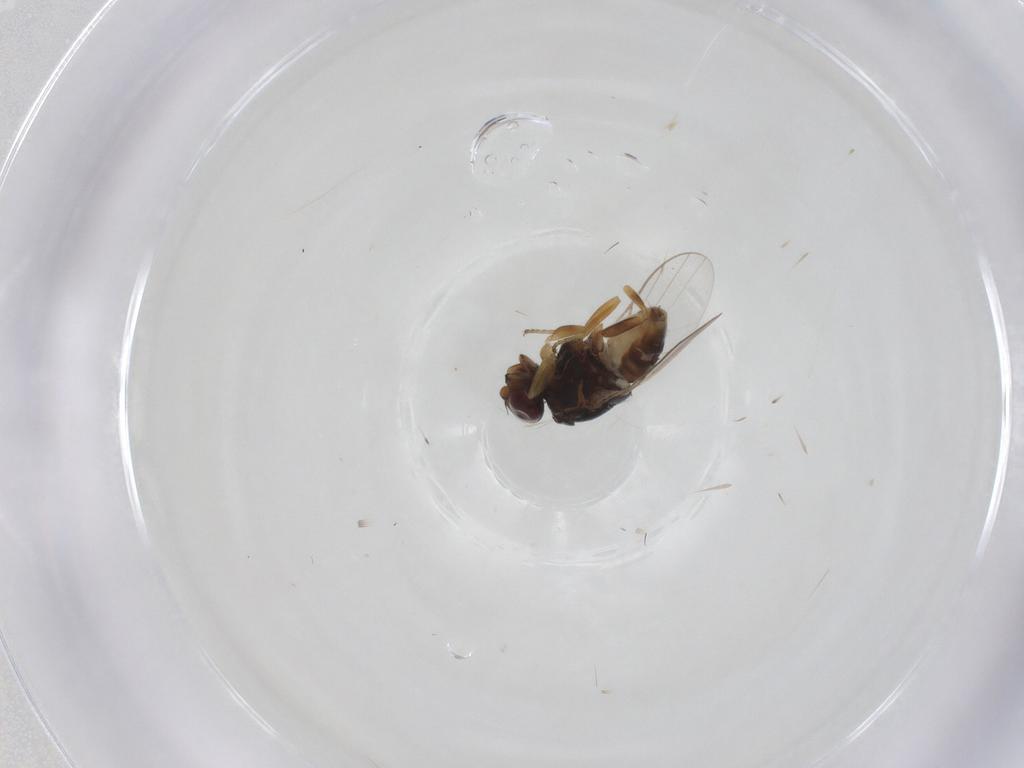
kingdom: Animalia
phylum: Arthropoda
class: Insecta
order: Diptera
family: Chloropidae
